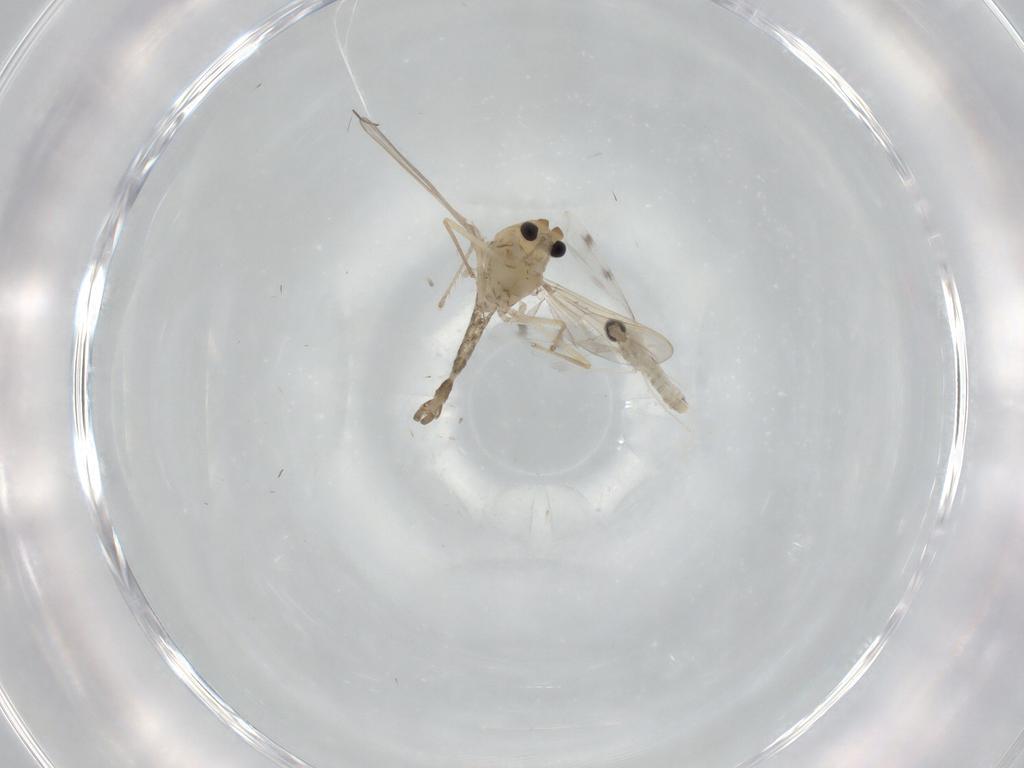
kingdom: Animalia
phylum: Arthropoda
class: Insecta
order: Diptera
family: Chironomidae
